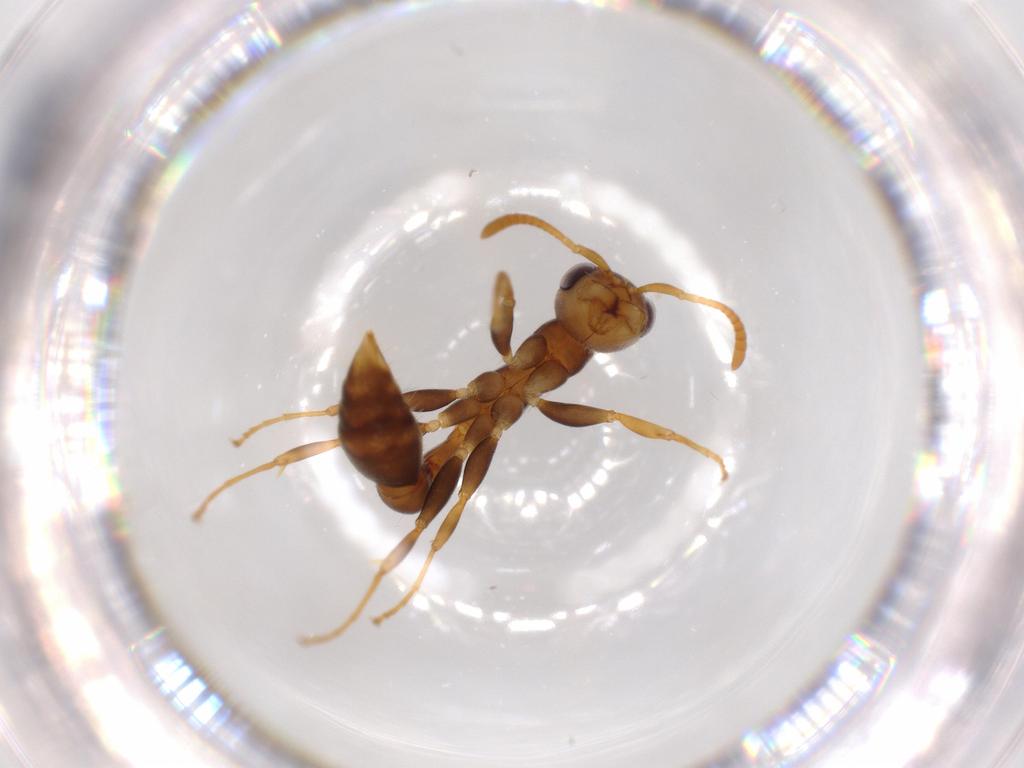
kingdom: Animalia
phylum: Arthropoda
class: Insecta
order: Hymenoptera
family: Formicidae
